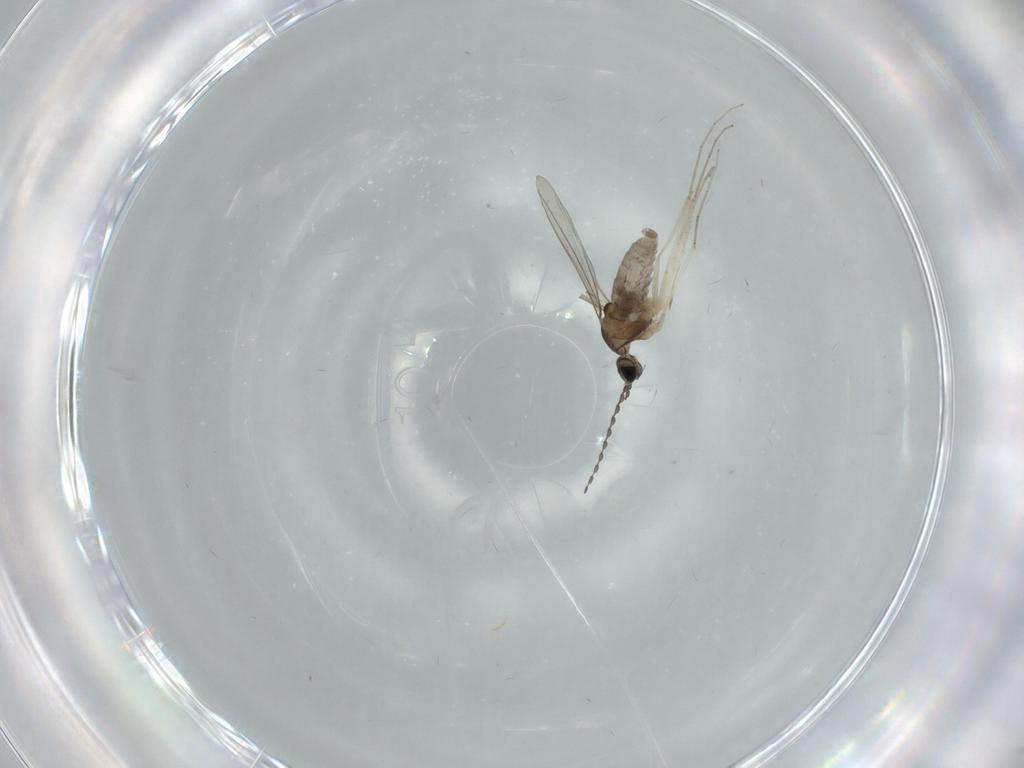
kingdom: Animalia
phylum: Arthropoda
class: Insecta
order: Diptera
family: Cecidomyiidae
